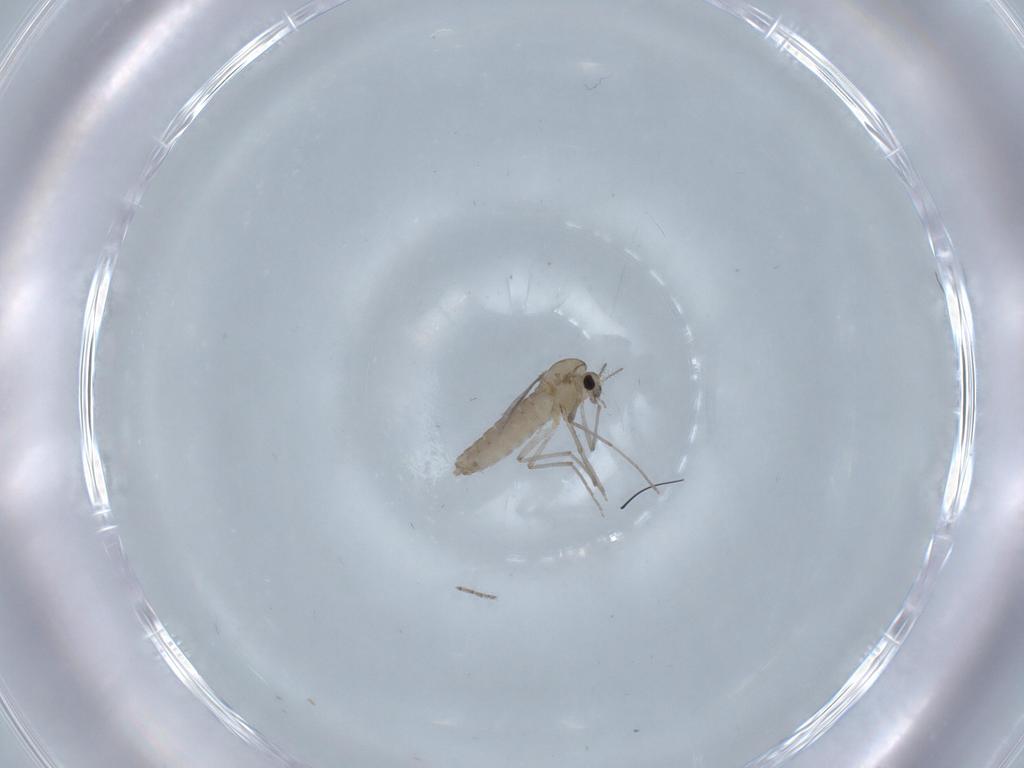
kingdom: Animalia
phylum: Arthropoda
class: Insecta
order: Diptera
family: Chironomidae
